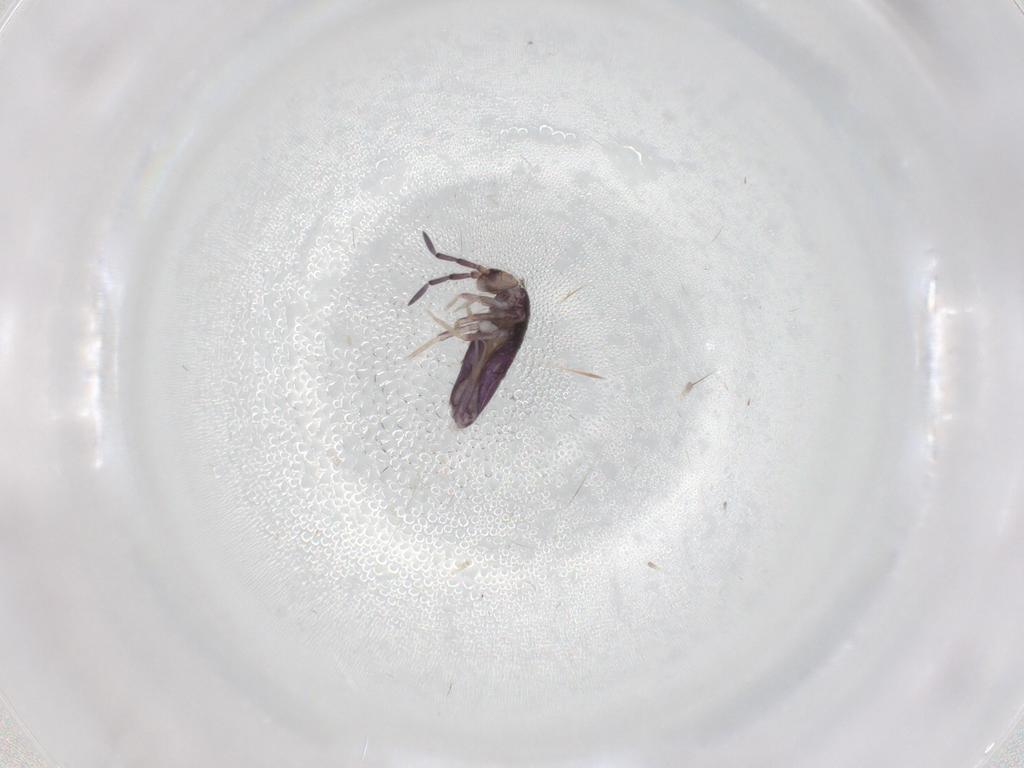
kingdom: Animalia
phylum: Arthropoda
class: Collembola
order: Entomobryomorpha
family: Entomobryidae
